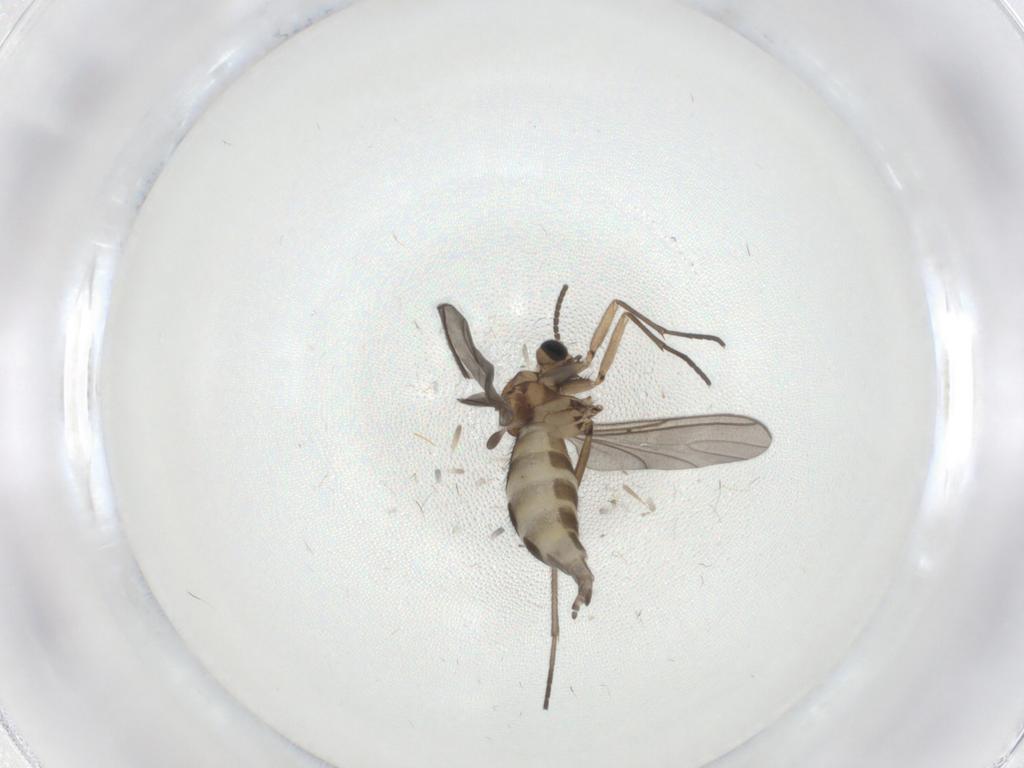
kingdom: Animalia
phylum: Arthropoda
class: Insecta
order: Diptera
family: Sciaridae
